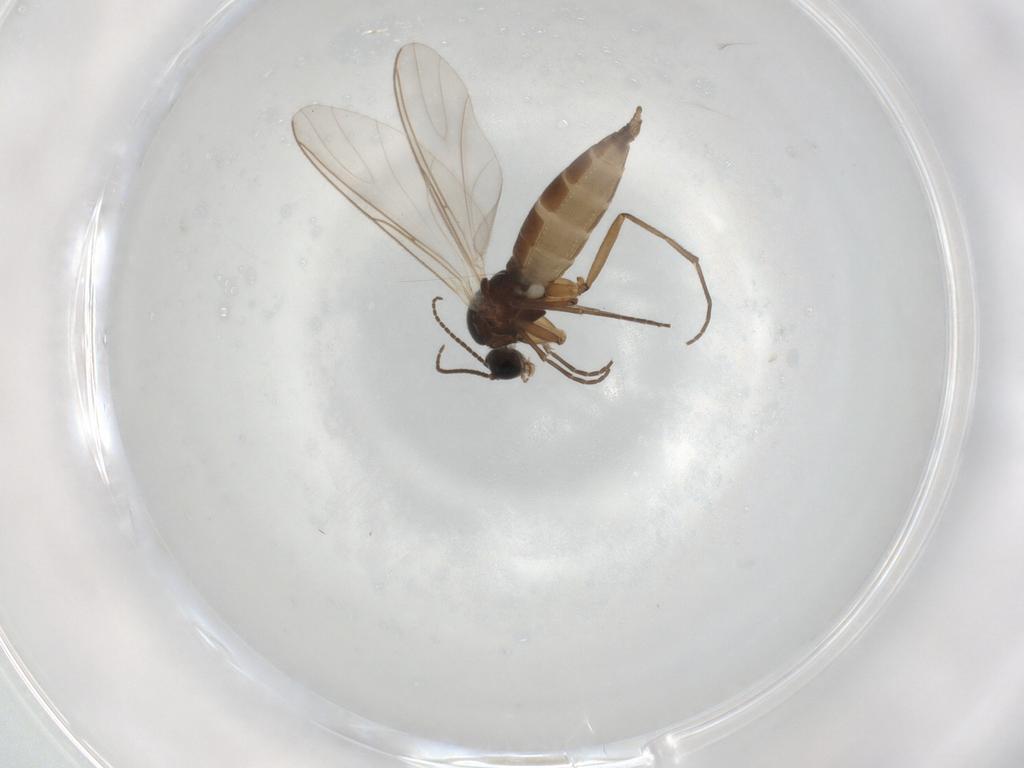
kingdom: Animalia
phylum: Arthropoda
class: Insecta
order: Diptera
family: Sciaridae
